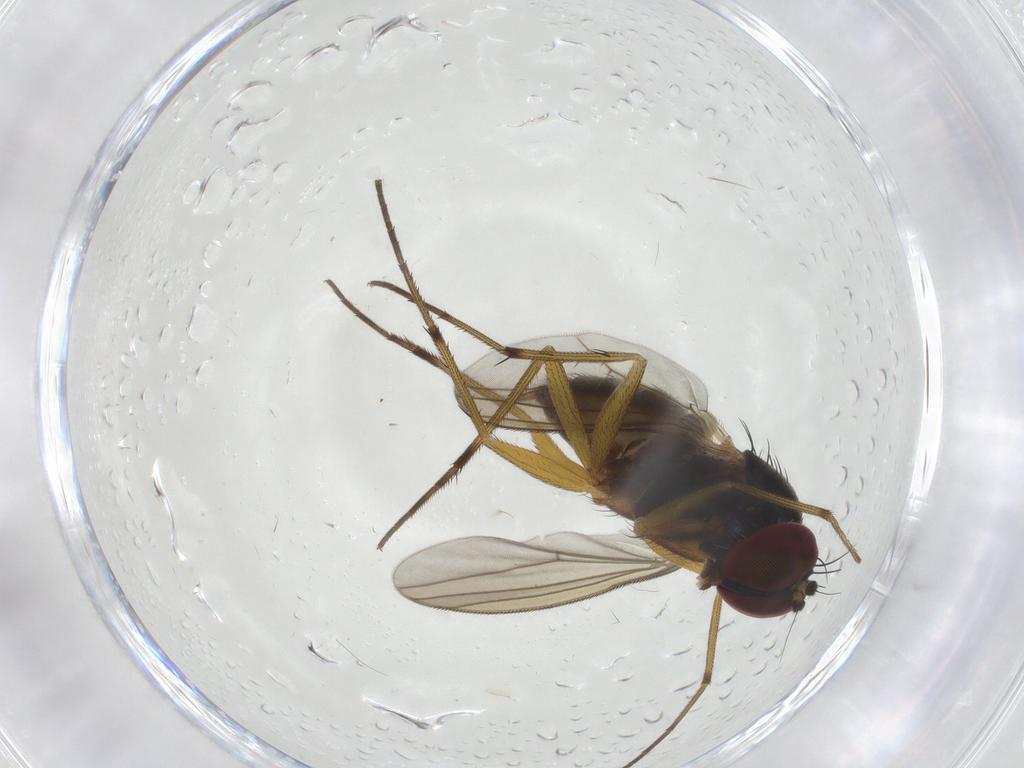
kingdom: Animalia
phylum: Arthropoda
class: Insecta
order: Diptera
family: Dolichopodidae
